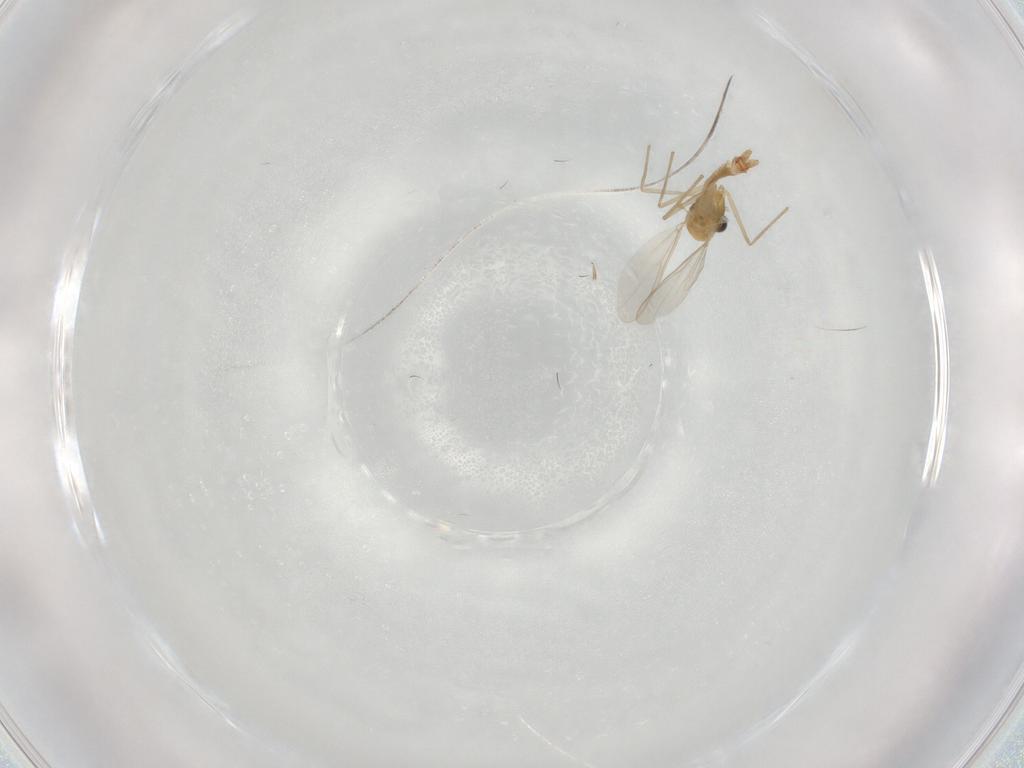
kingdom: Animalia
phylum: Arthropoda
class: Insecta
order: Diptera
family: Chironomidae
